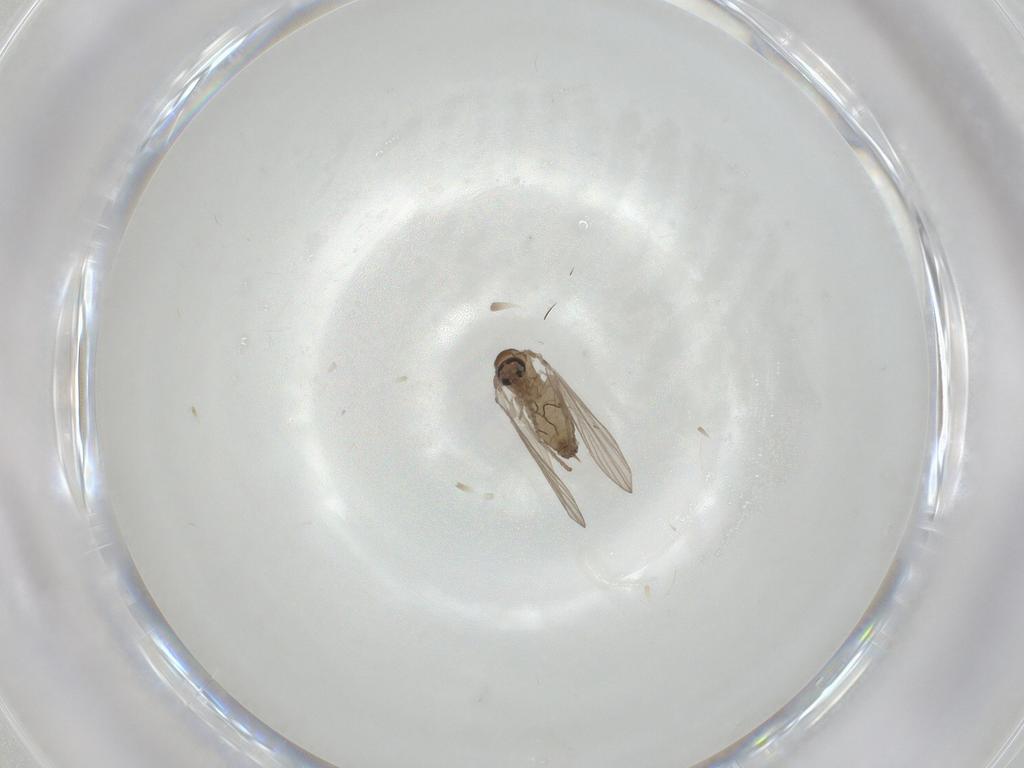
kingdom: Animalia
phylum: Arthropoda
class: Insecta
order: Diptera
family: Psychodidae
